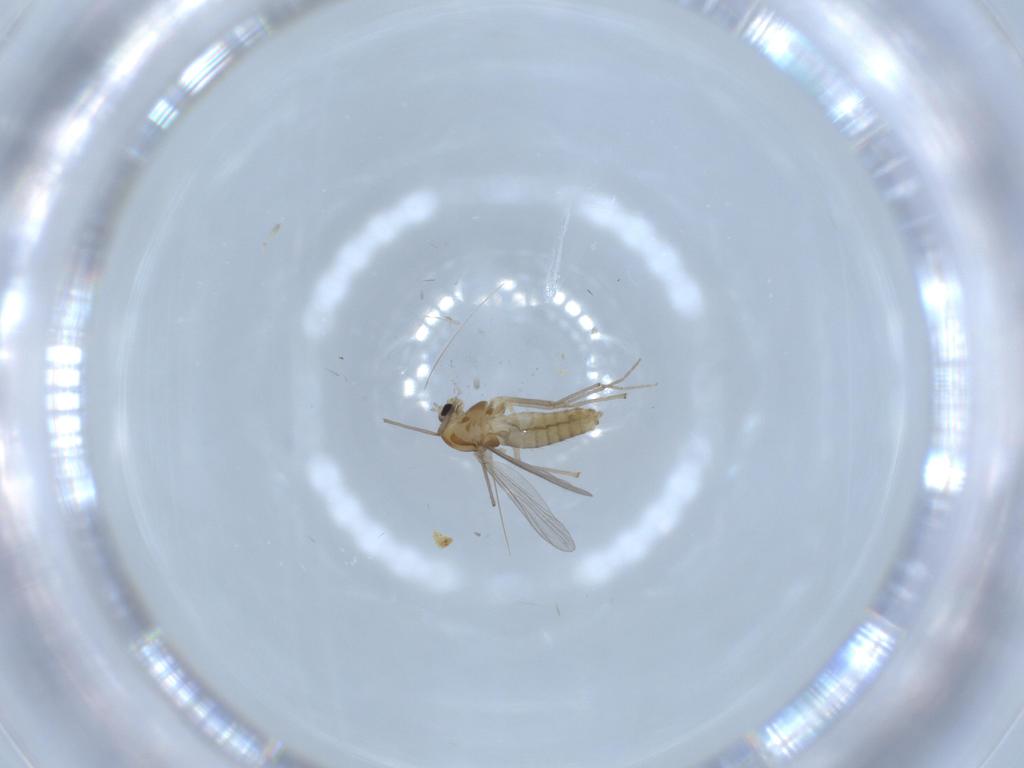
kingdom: Animalia
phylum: Arthropoda
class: Insecta
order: Diptera
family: Chironomidae
